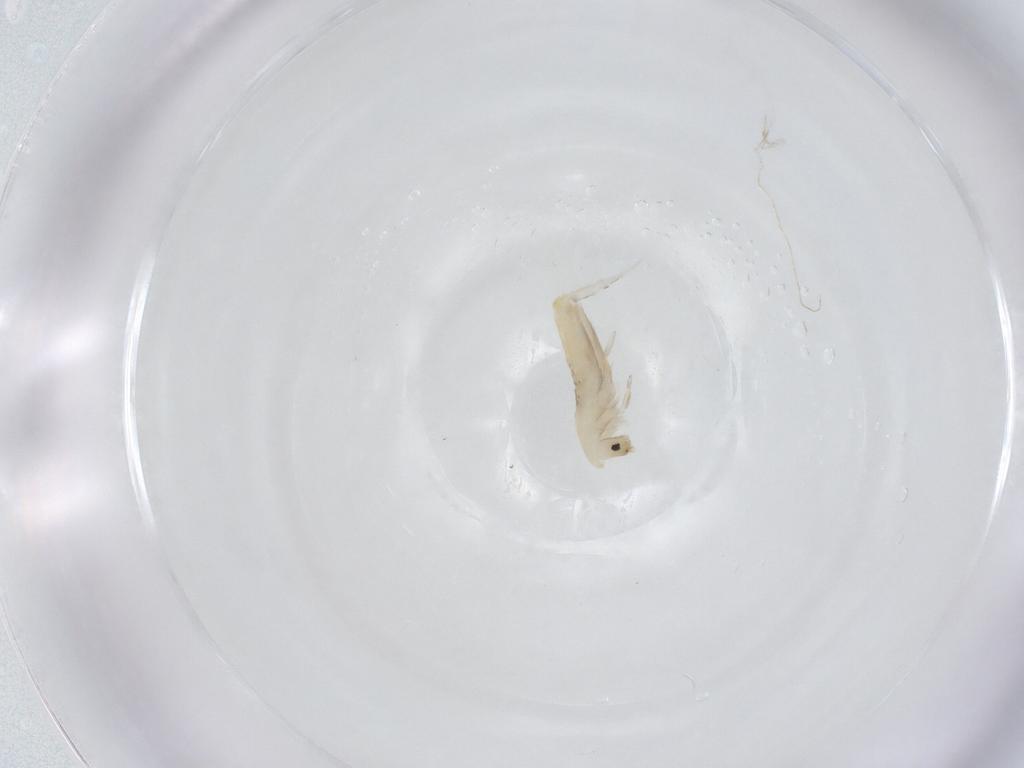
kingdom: Animalia
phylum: Arthropoda
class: Collembola
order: Entomobryomorpha
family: Entomobryidae
